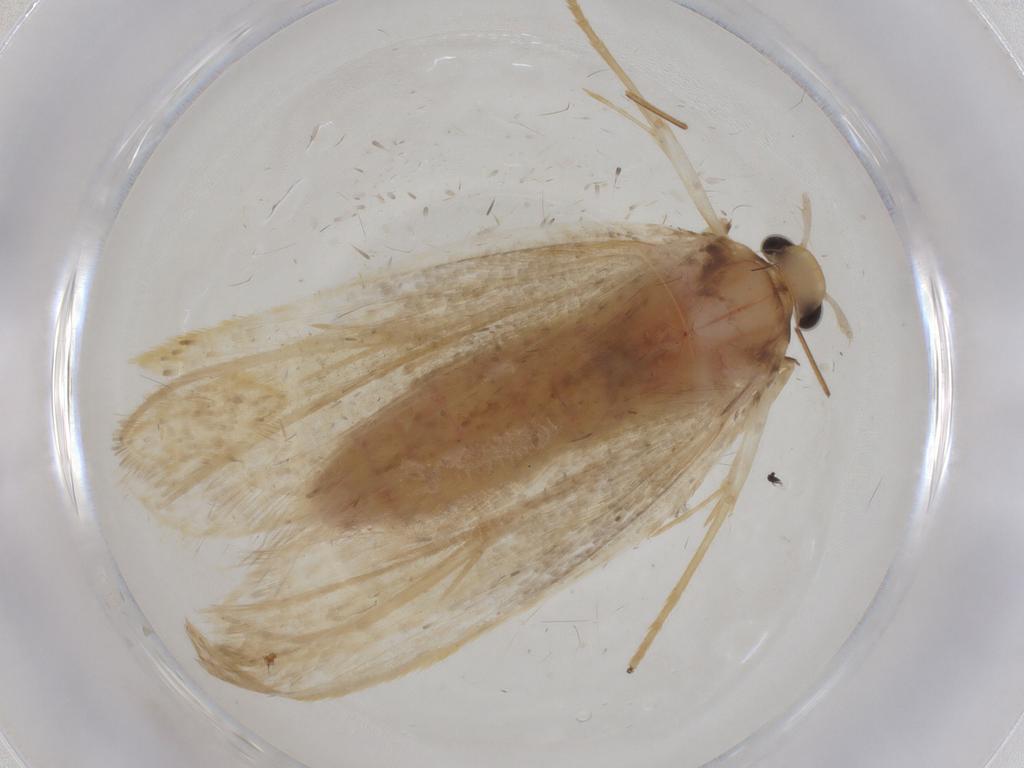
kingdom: Animalia
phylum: Arthropoda
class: Insecta
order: Lepidoptera
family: Lecithoceridae
